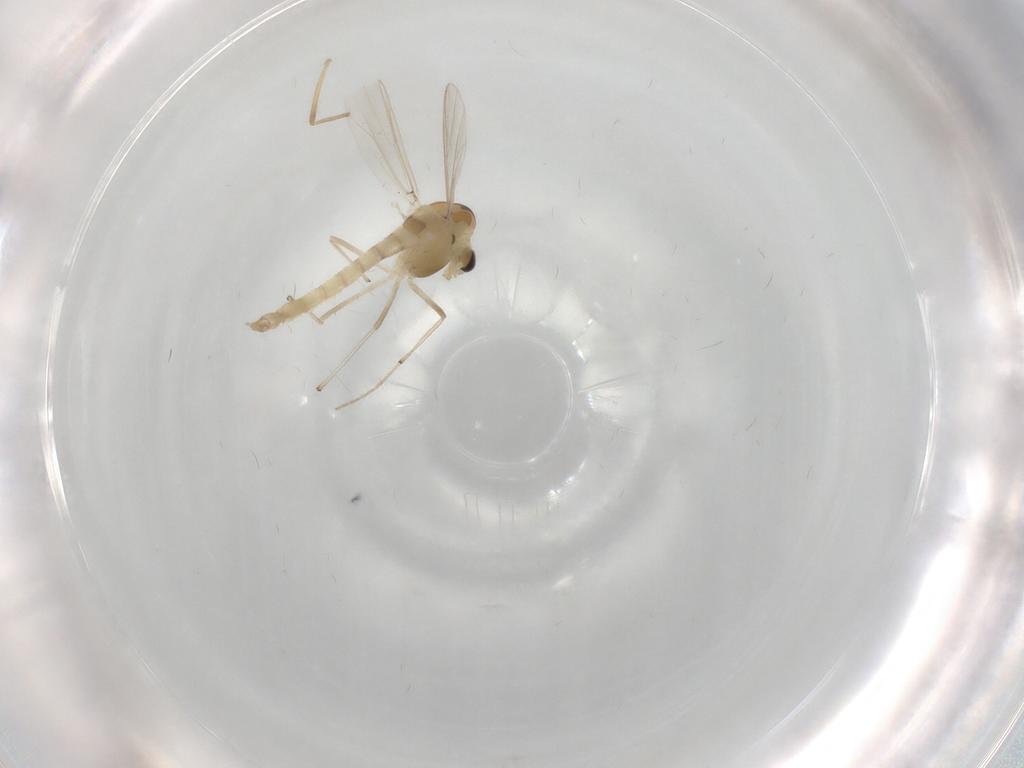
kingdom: Animalia
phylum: Arthropoda
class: Insecta
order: Diptera
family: Chironomidae
